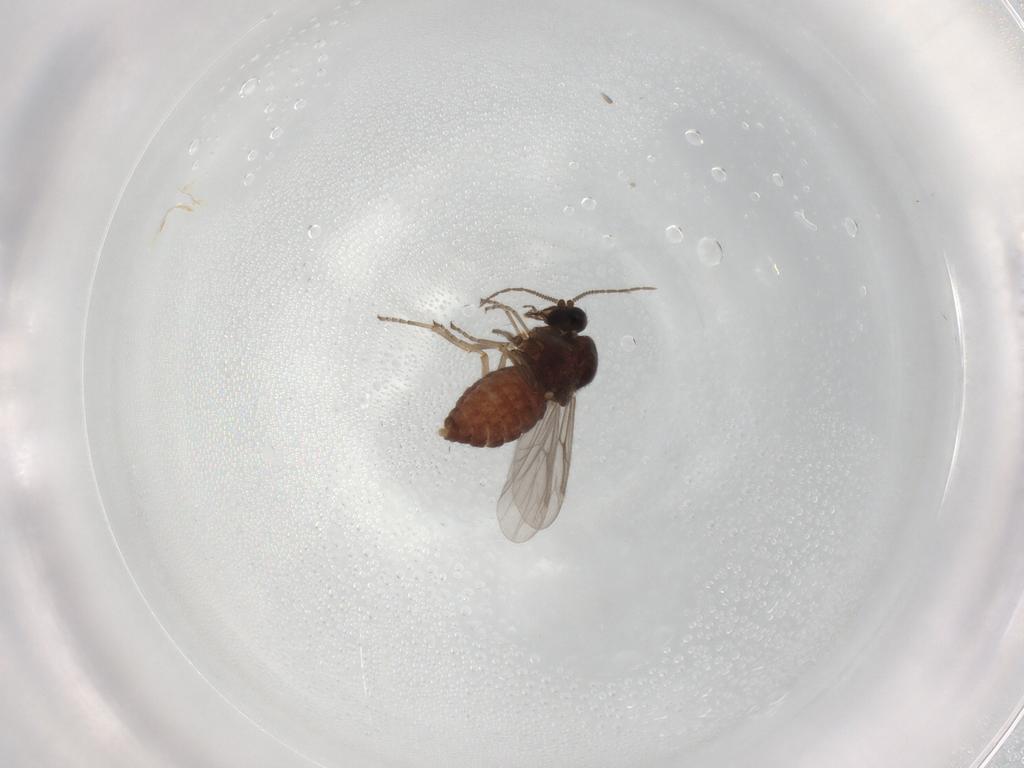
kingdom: Animalia
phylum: Arthropoda
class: Insecta
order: Diptera
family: Ceratopogonidae
